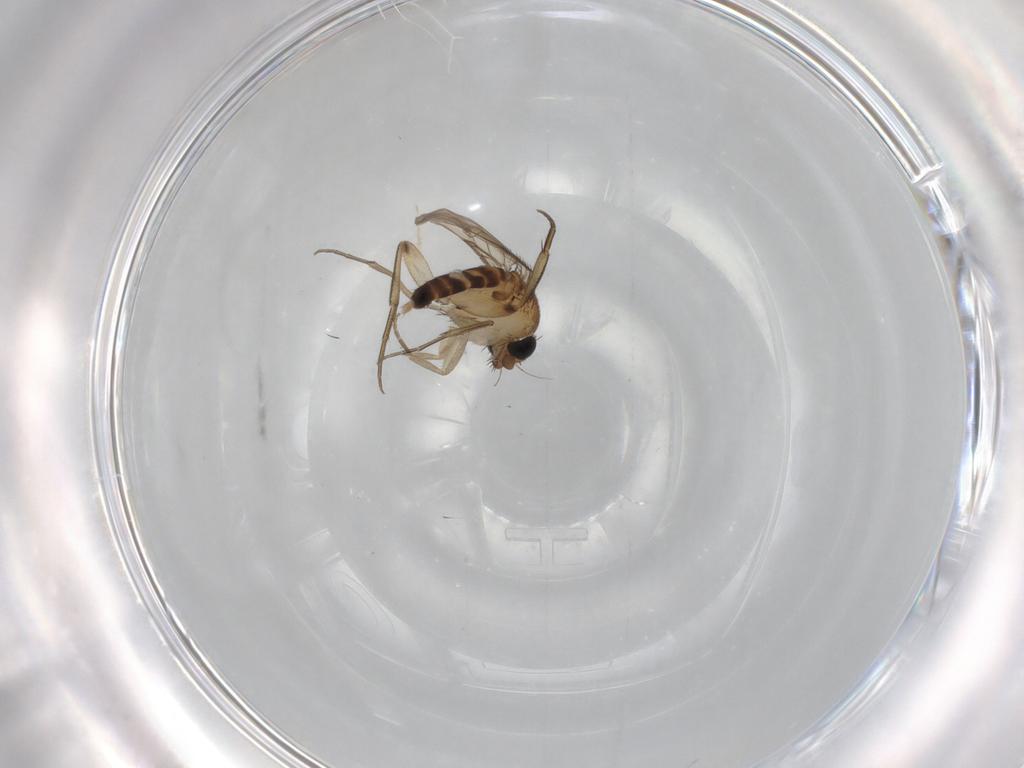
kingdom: Animalia
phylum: Arthropoda
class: Insecta
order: Diptera
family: Phoridae
